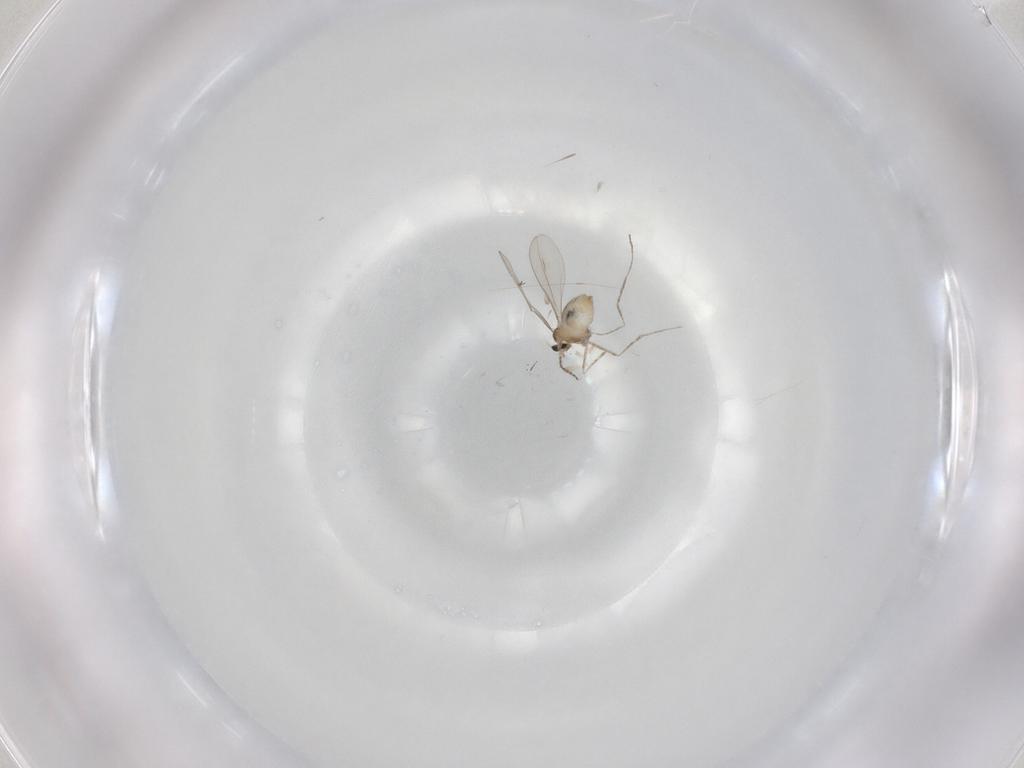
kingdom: Animalia
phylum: Arthropoda
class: Insecta
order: Diptera
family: Cecidomyiidae
